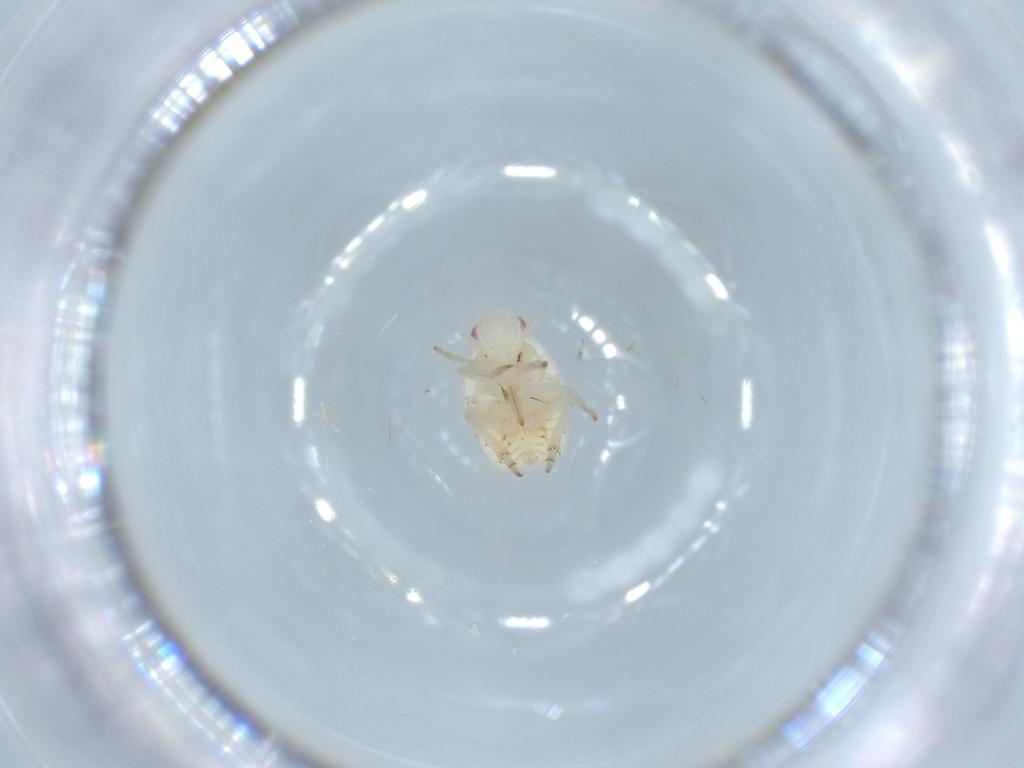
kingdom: Animalia
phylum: Arthropoda
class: Insecta
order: Hemiptera
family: Flatidae
